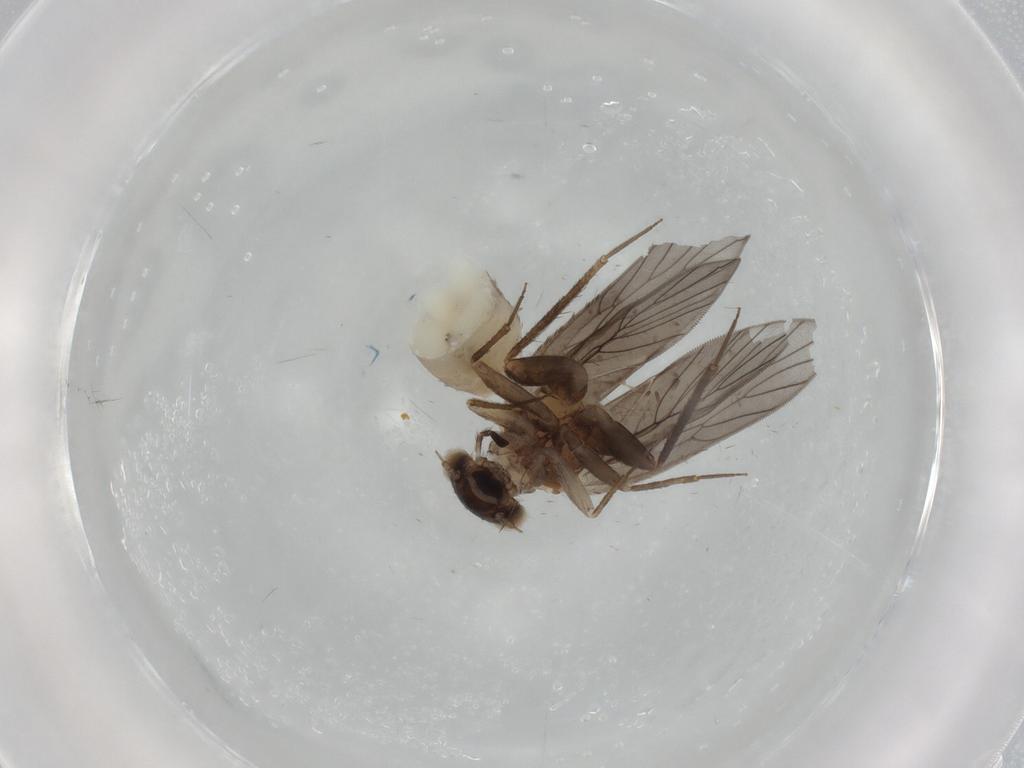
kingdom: Animalia
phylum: Arthropoda
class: Insecta
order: Psocodea
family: Lepidopsocidae
